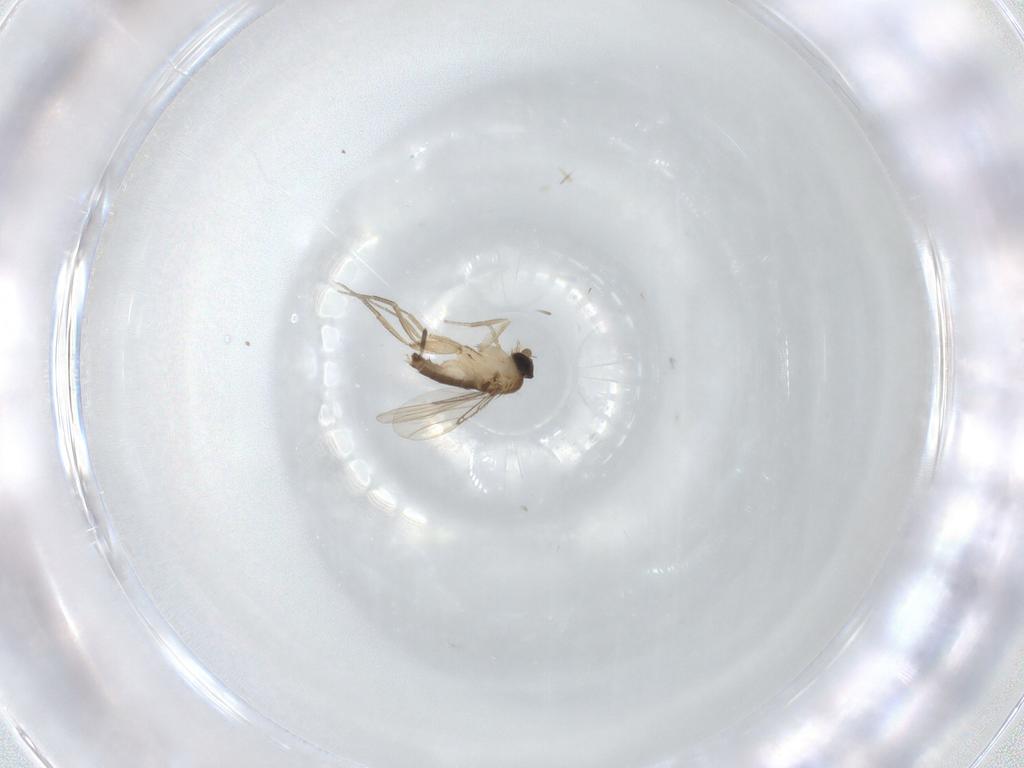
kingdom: Animalia
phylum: Arthropoda
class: Insecta
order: Diptera
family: Phoridae
